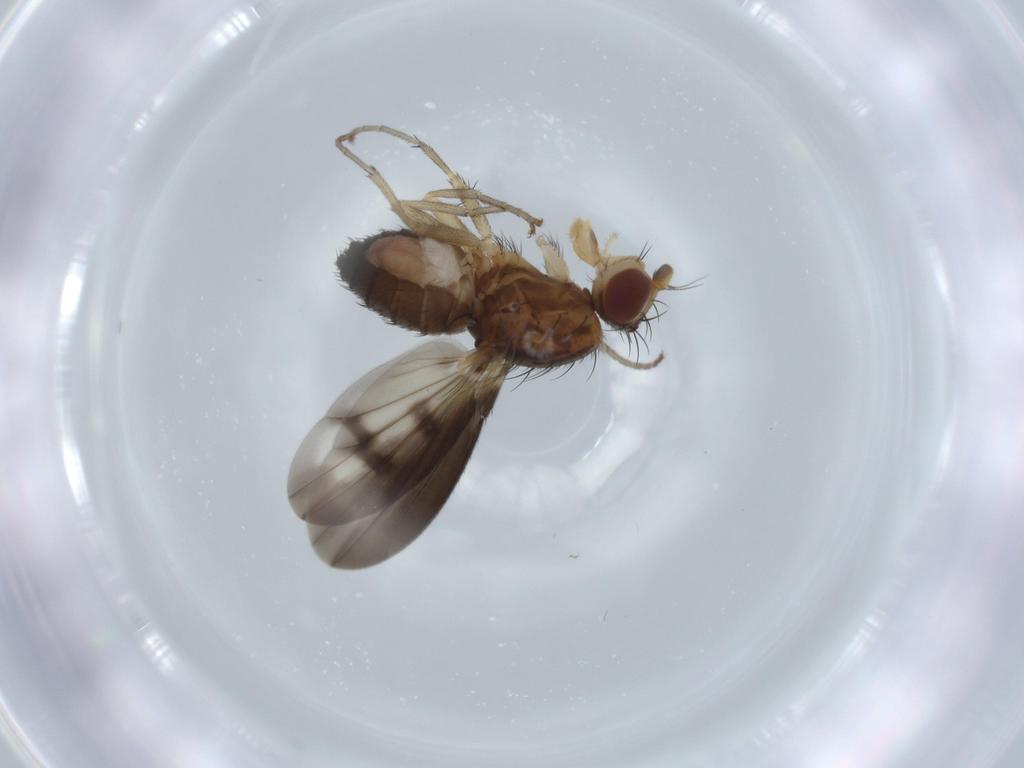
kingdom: Animalia
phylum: Arthropoda
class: Insecta
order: Diptera
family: Heleomyzidae
